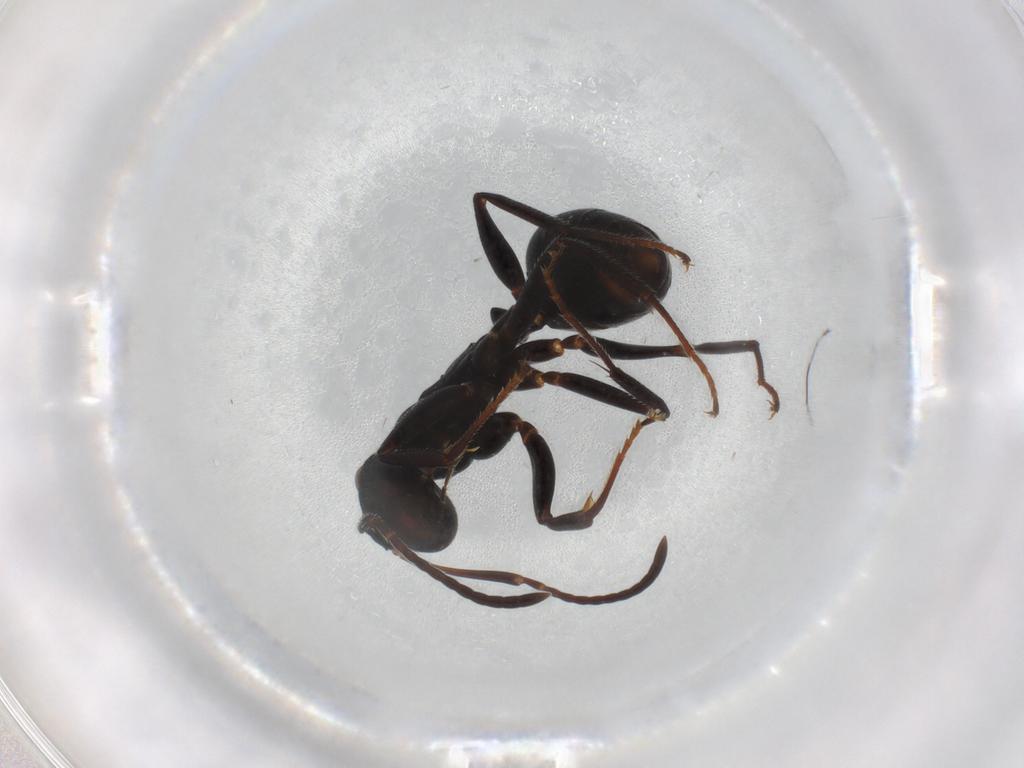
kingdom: Animalia
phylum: Arthropoda
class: Insecta
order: Hymenoptera
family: Formicidae
